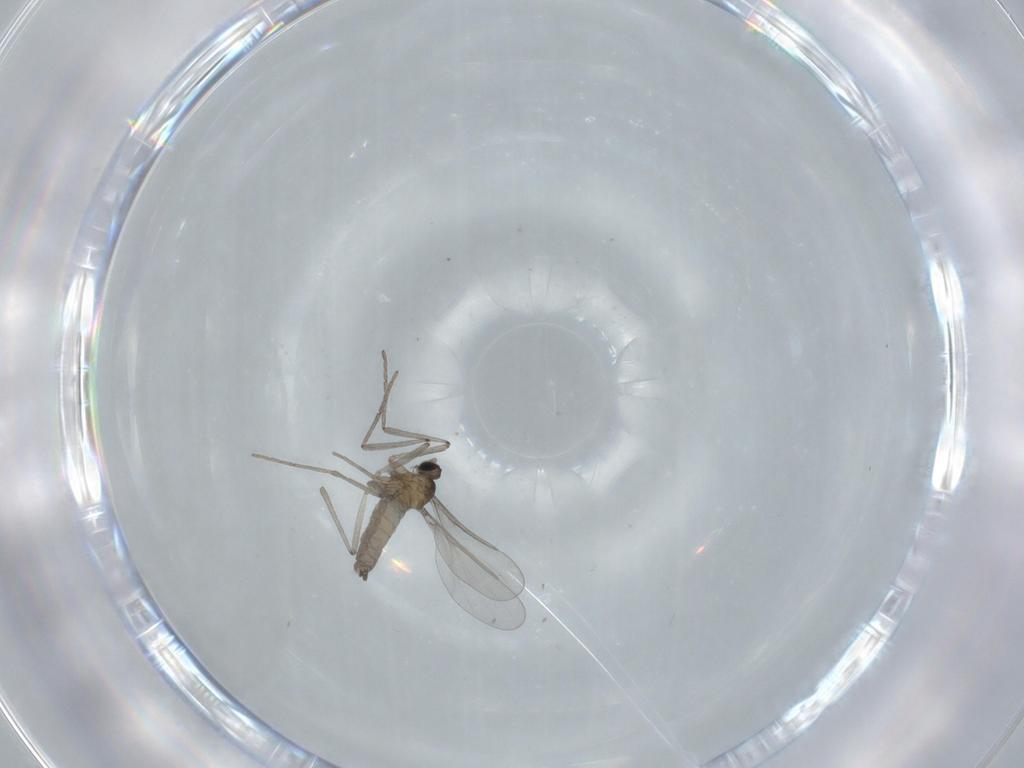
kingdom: Animalia
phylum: Arthropoda
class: Insecta
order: Diptera
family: Cecidomyiidae
